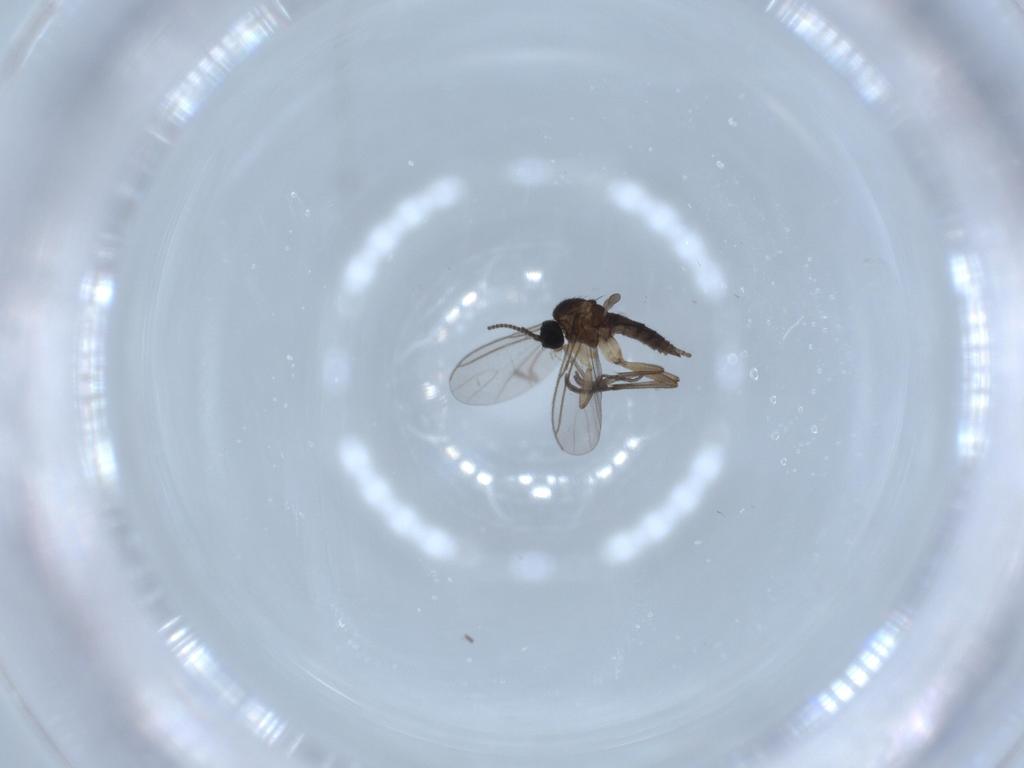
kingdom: Animalia
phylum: Arthropoda
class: Insecta
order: Diptera
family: Sciaridae
